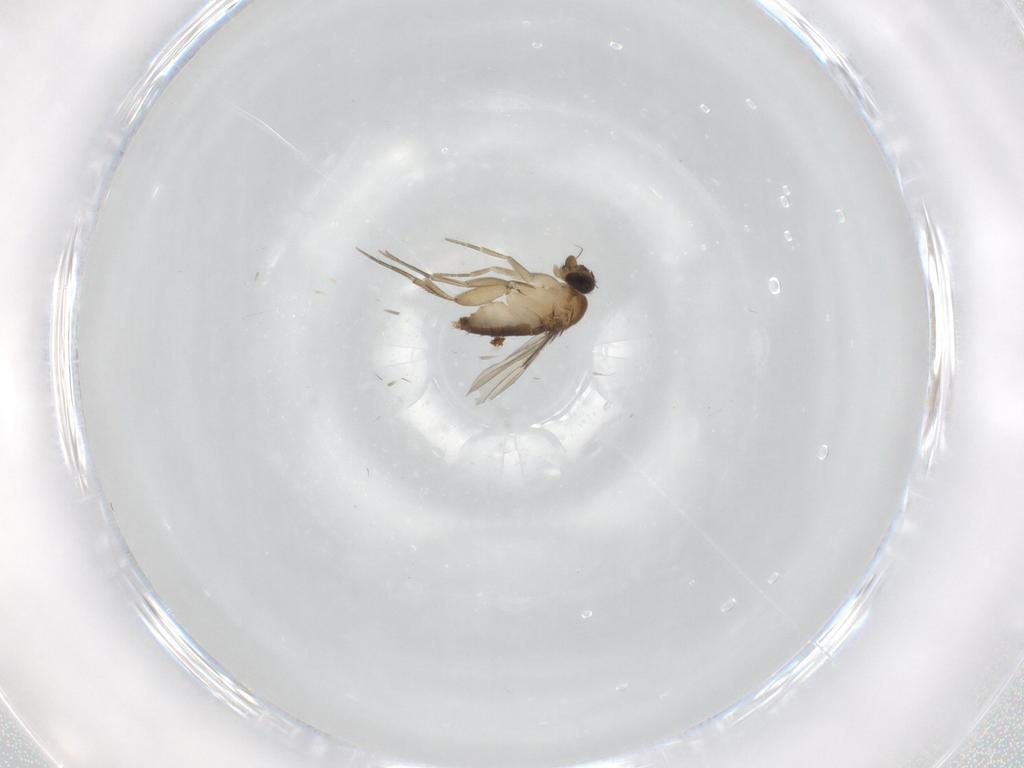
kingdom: Animalia
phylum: Arthropoda
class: Insecta
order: Diptera
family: Phoridae
